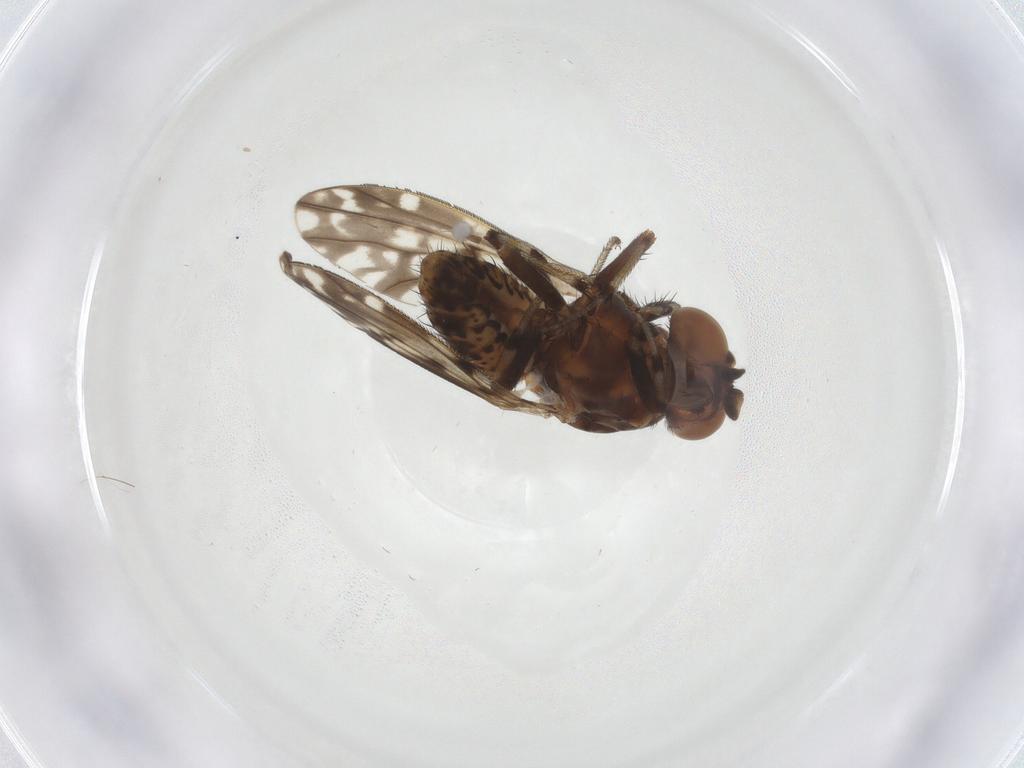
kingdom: Animalia
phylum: Arthropoda
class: Insecta
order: Diptera
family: Lauxaniidae
